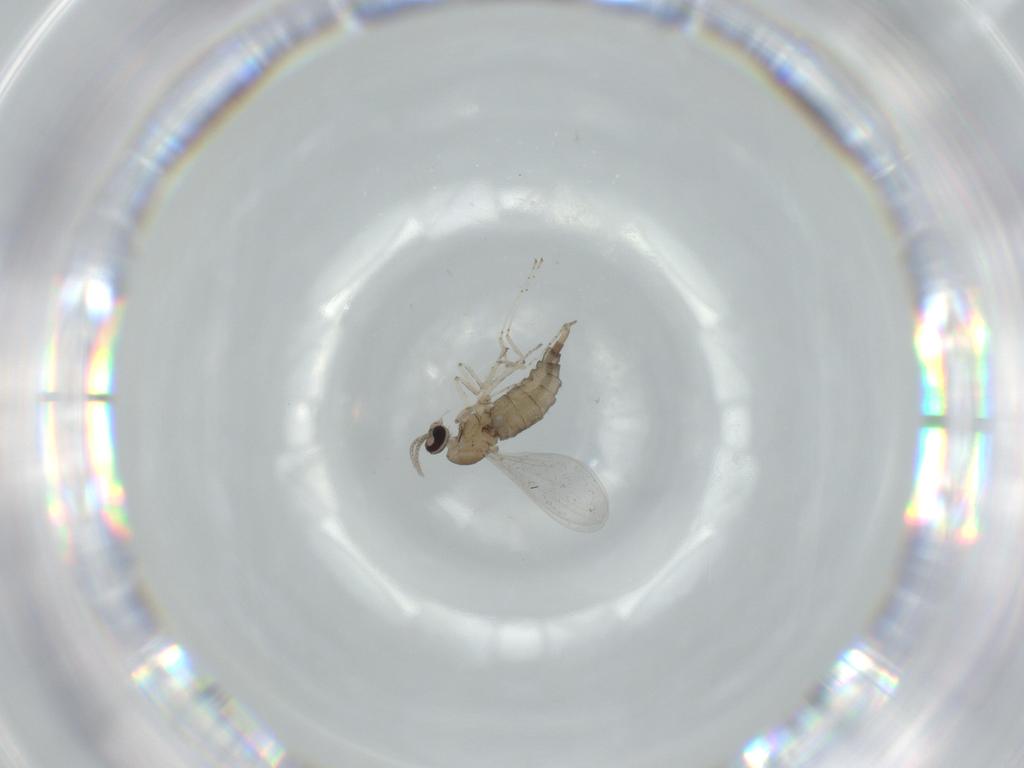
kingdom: Animalia
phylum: Arthropoda
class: Insecta
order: Diptera
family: Cecidomyiidae
